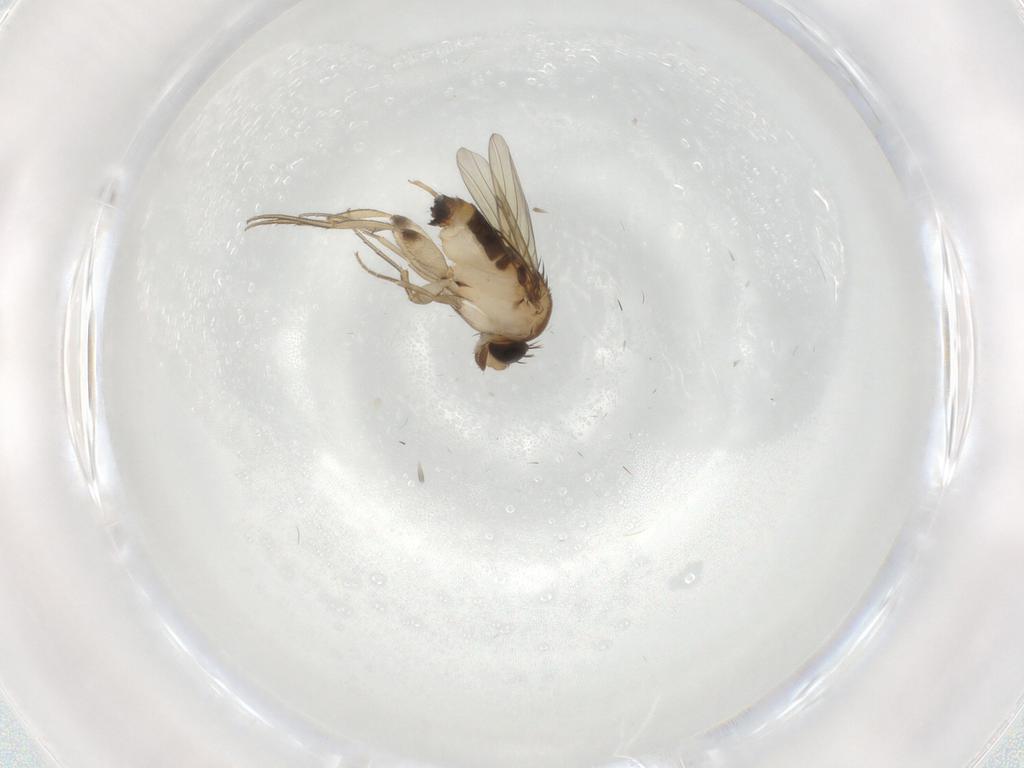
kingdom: Animalia
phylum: Arthropoda
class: Insecta
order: Diptera
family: Phoridae
